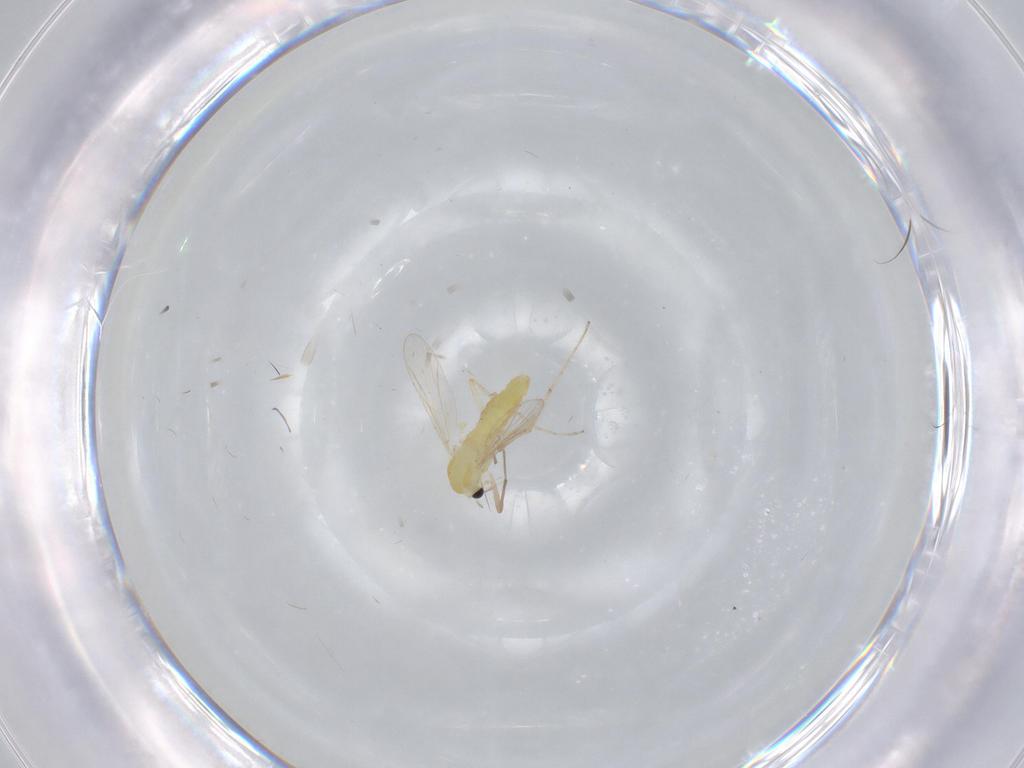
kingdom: Animalia
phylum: Arthropoda
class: Insecta
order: Diptera
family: Chironomidae
